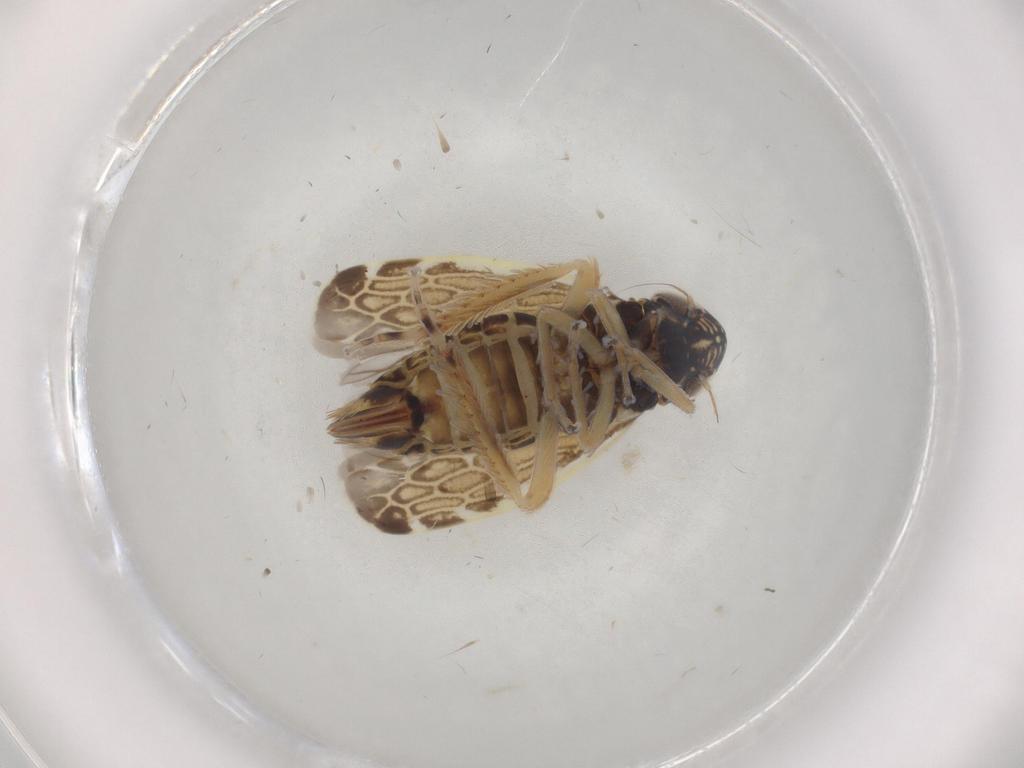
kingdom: Animalia
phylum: Arthropoda
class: Insecta
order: Hemiptera
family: Cicadellidae
